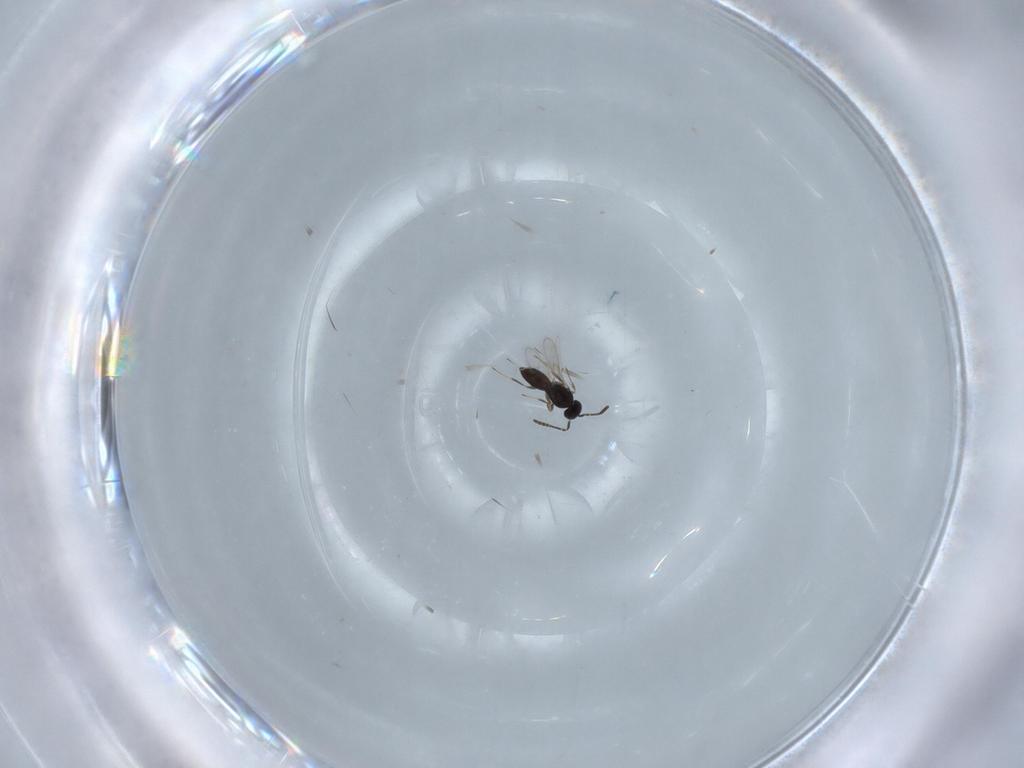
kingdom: Animalia
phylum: Arthropoda
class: Insecta
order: Hymenoptera
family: Scelionidae
